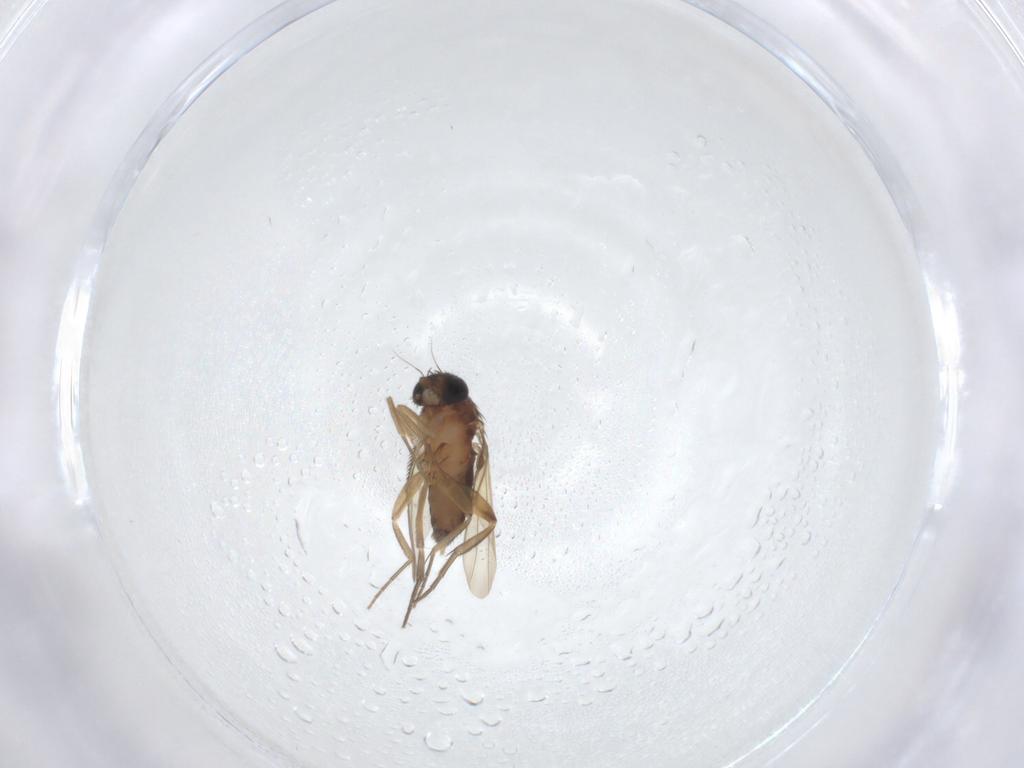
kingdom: Animalia
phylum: Arthropoda
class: Insecta
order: Diptera
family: Phoridae
